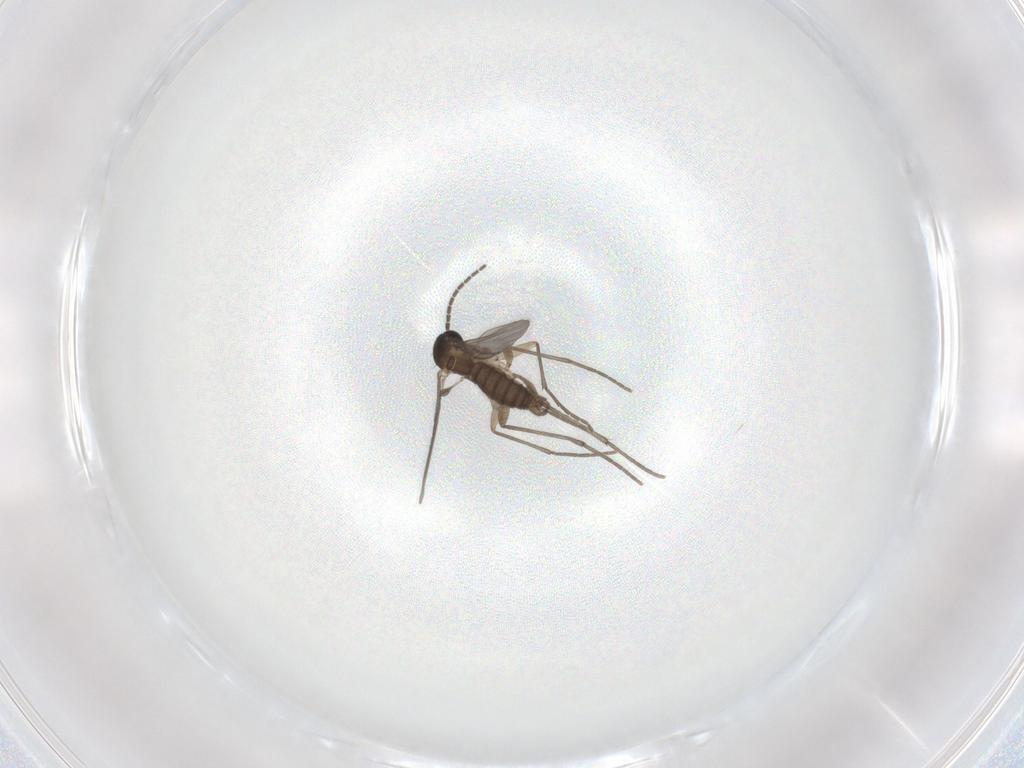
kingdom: Animalia
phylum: Arthropoda
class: Insecta
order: Diptera
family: Sciaridae
